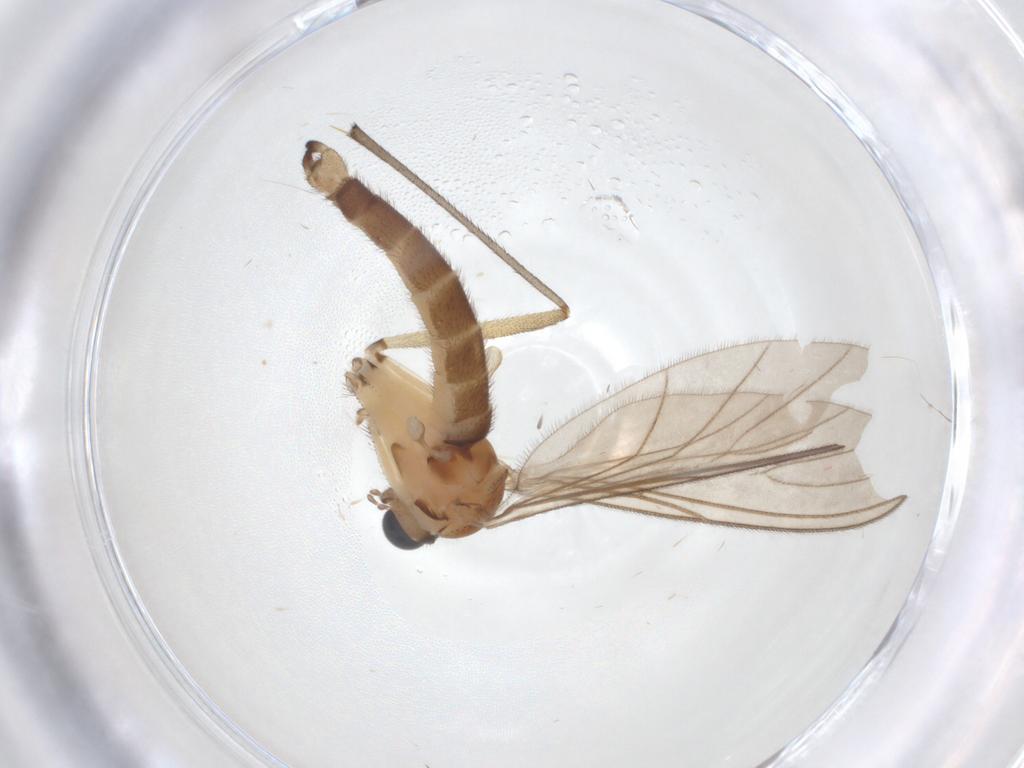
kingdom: Animalia
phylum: Arthropoda
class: Insecta
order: Diptera
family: Sciaridae
